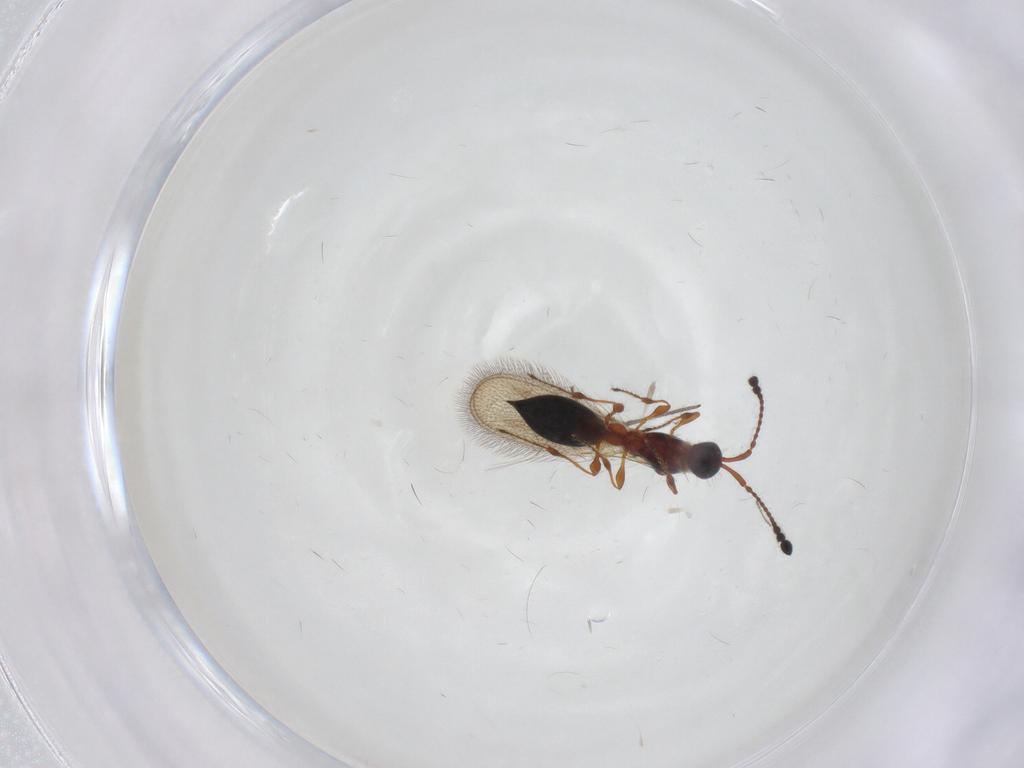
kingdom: Animalia
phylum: Arthropoda
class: Insecta
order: Hymenoptera
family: Diapriidae
